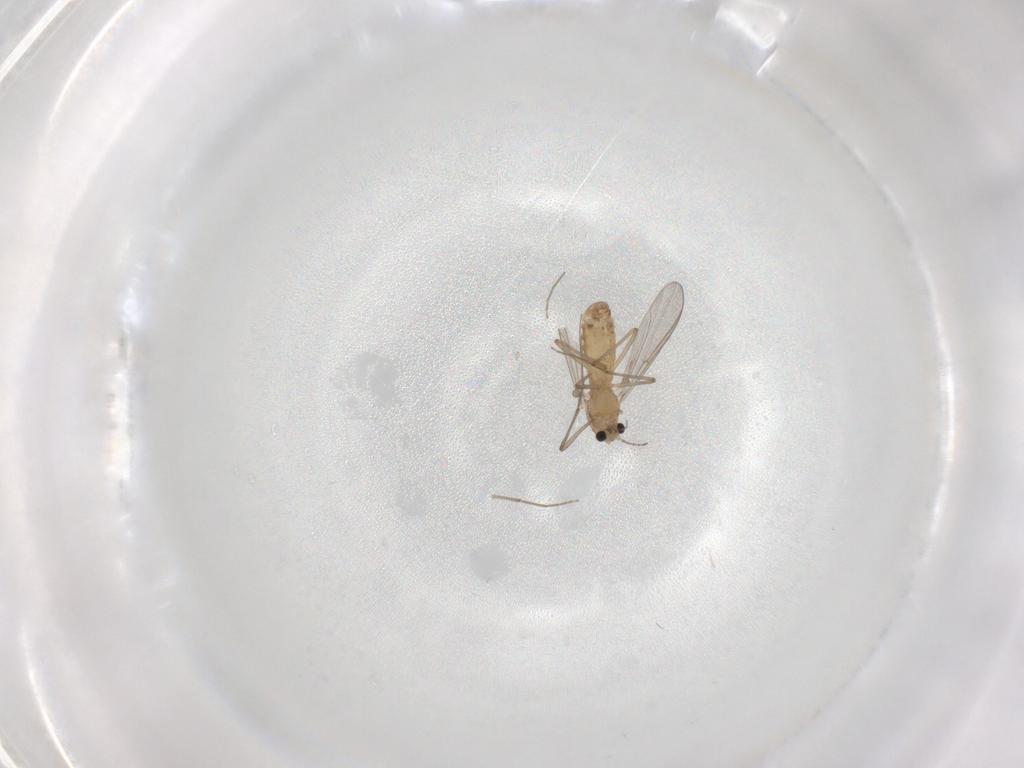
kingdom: Animalia
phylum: Arthropoda
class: Insecta
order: Diptera
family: Chironomidae
